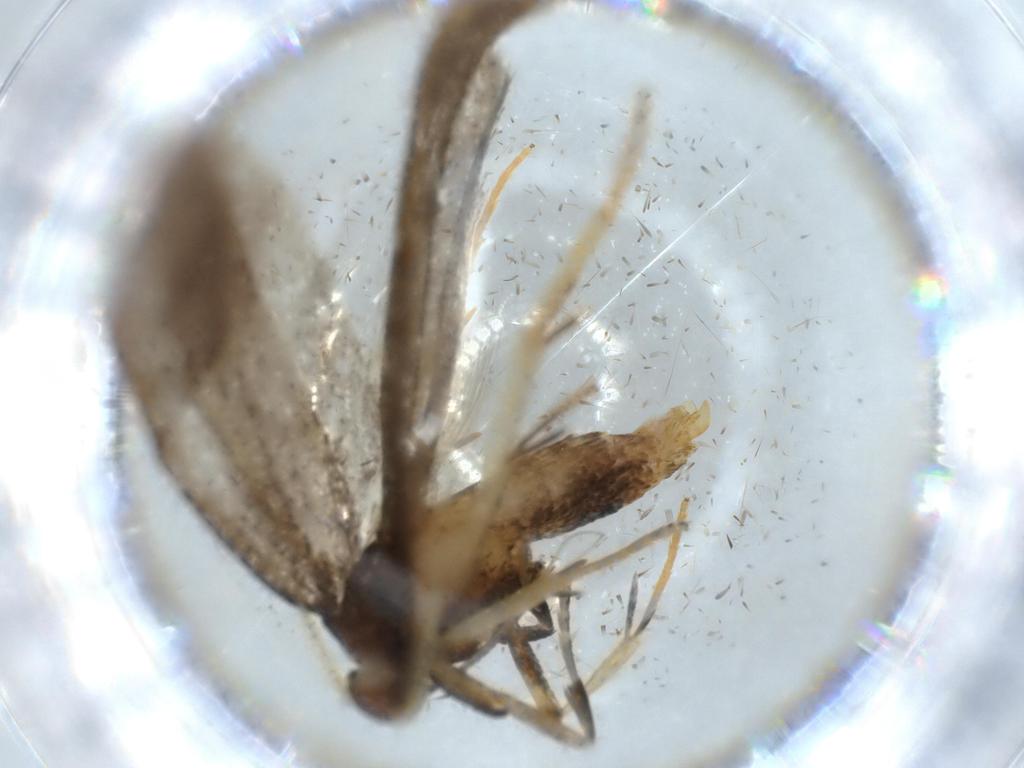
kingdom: Animalia
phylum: Arthropoda
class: Insecta
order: Lepidoptera
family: Lecithoceridae
